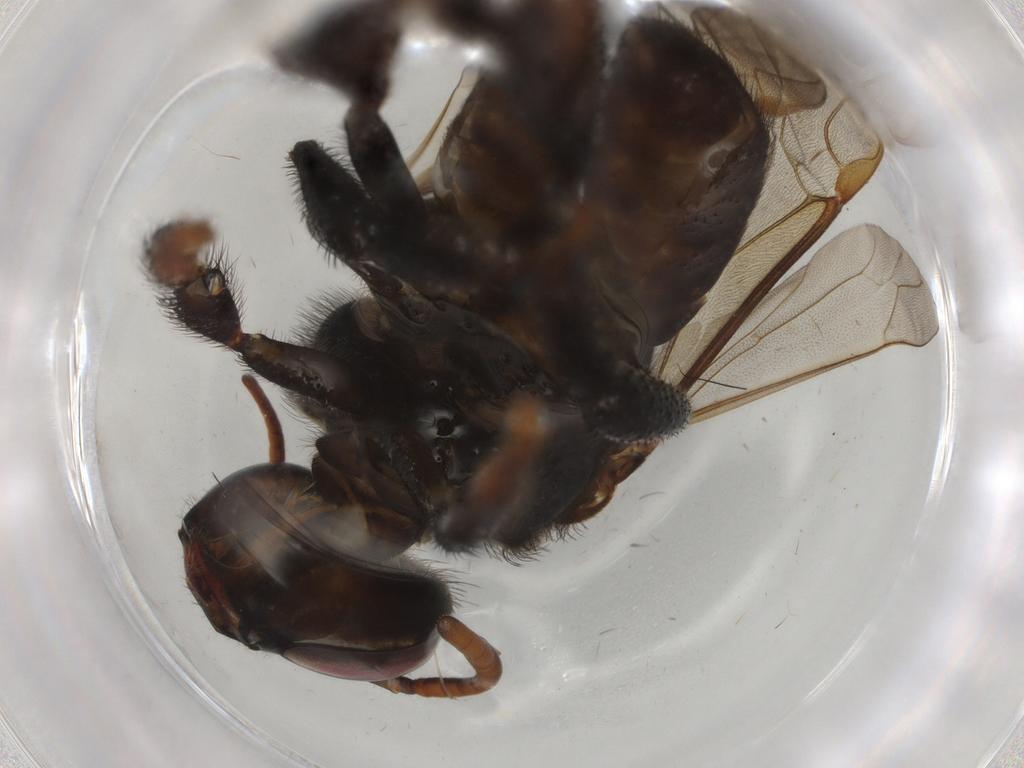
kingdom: Animalia
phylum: Arthropoda
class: Insecta
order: Diptera
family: Dolichopodidae
